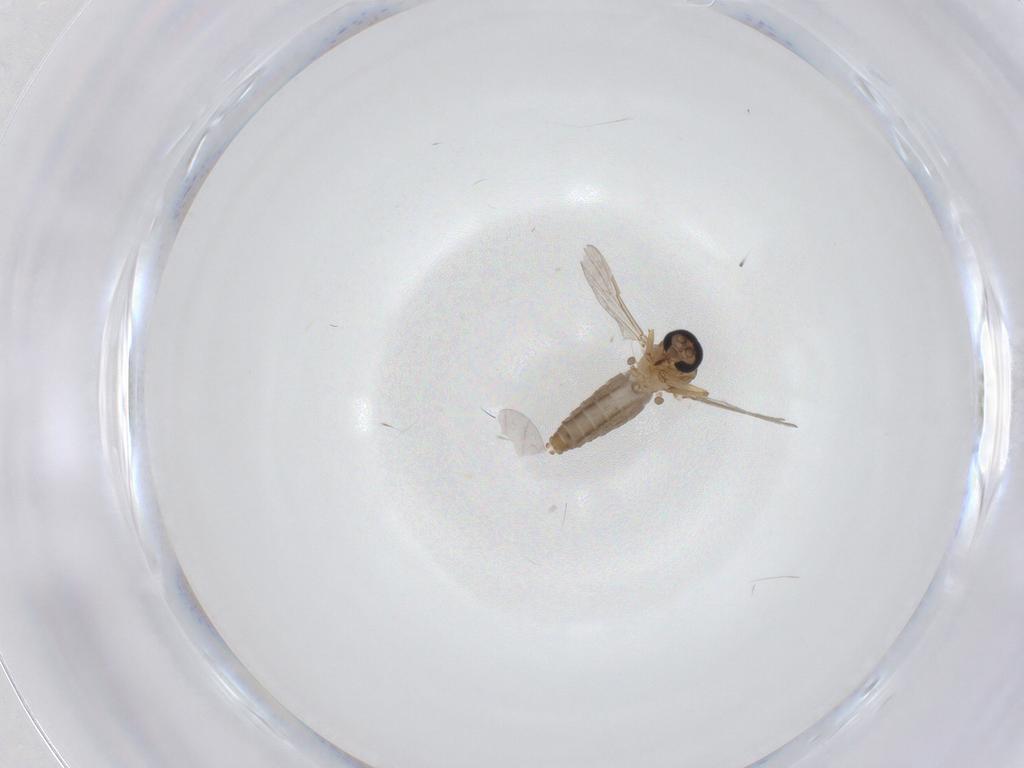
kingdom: Animalia
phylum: Arthropoda
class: Insecta
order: Diptera
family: Ceratopogonidae
